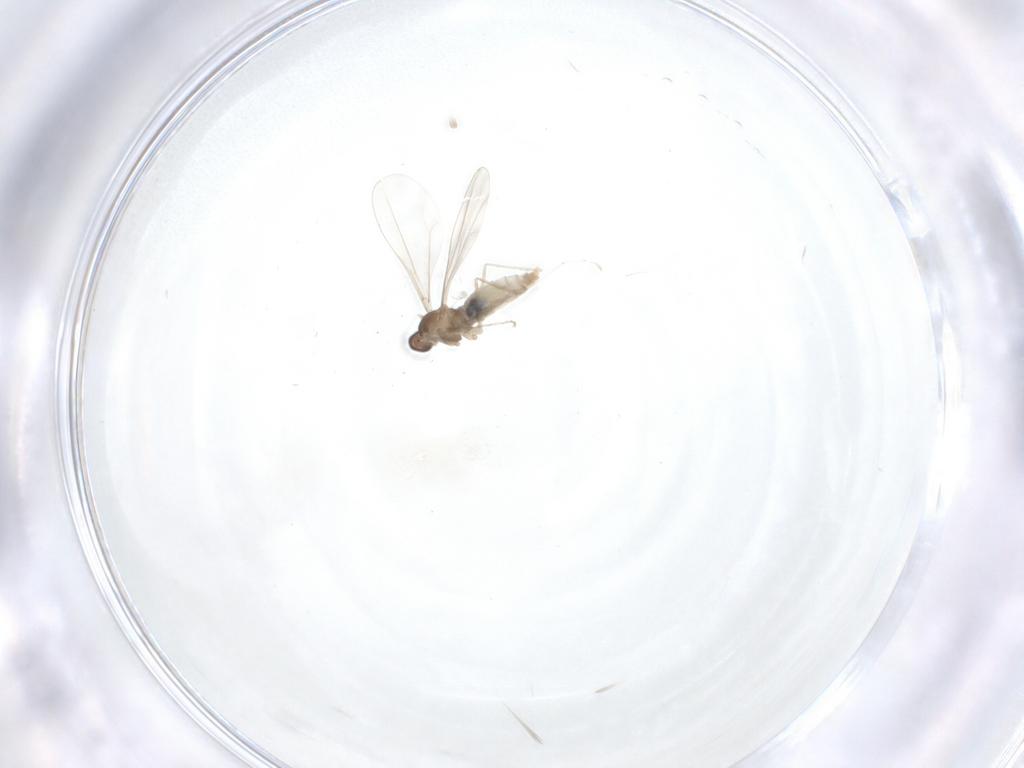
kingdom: Animalia
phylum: Arthropoda
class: Insecta
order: Diptera
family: Cecidomyiidae
